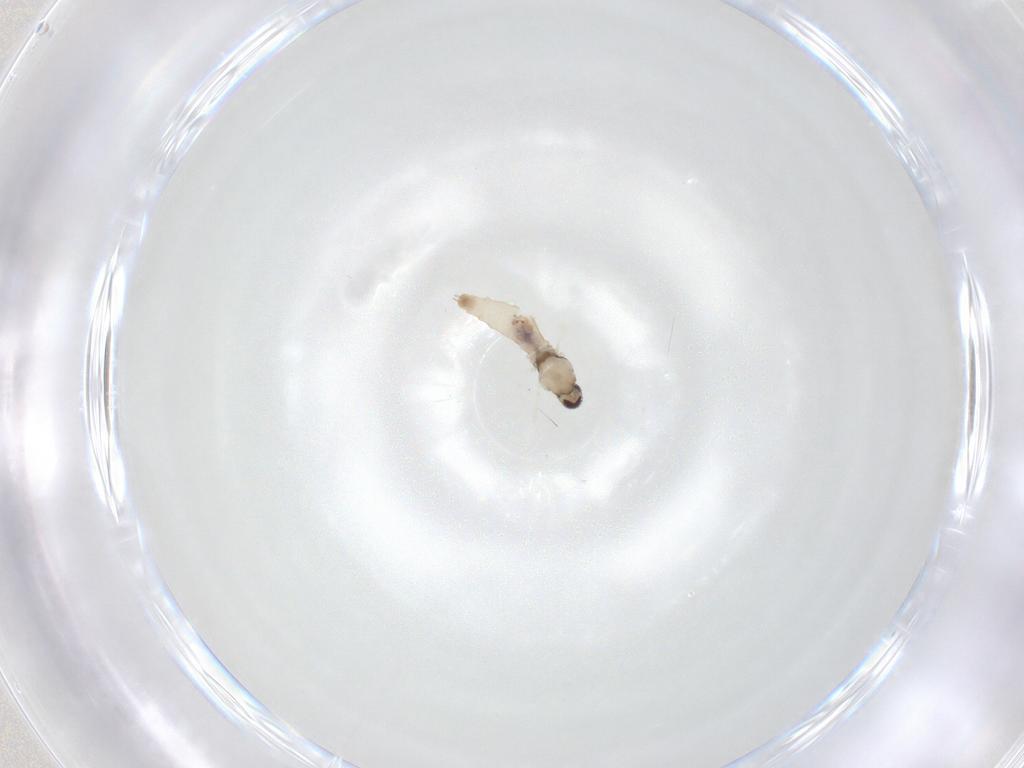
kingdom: Animalia
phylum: Arthropoda
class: Insecta
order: Diptera
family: Cecidomyiidae
